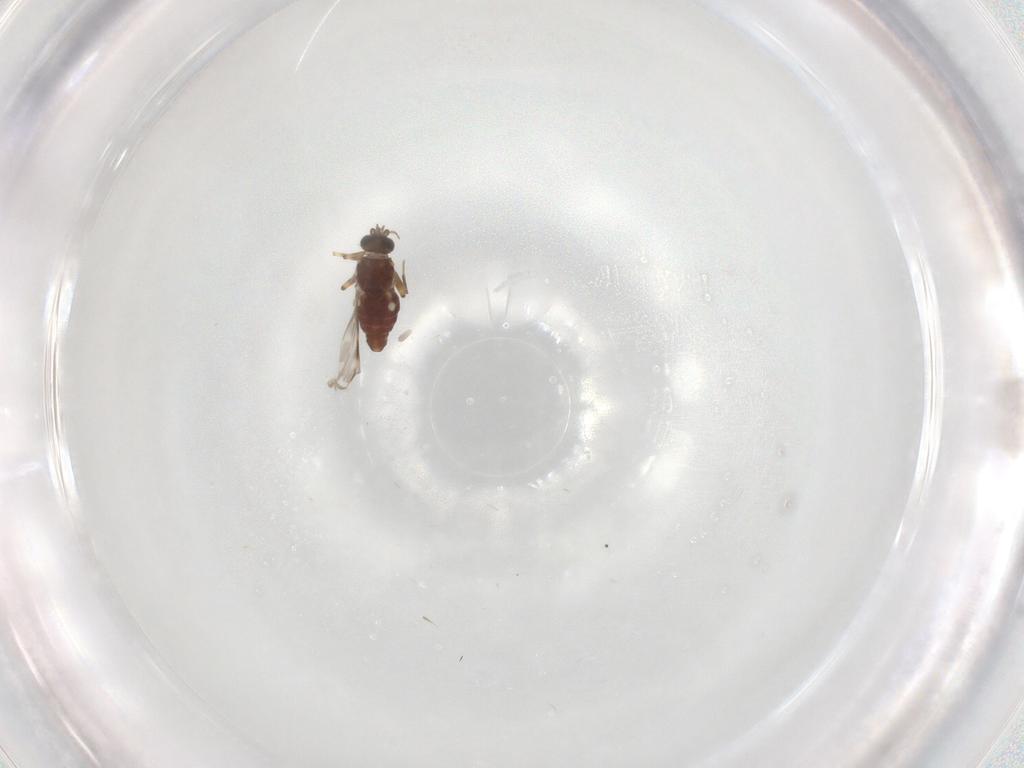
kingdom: Animalia
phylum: Arthropoda
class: Insecta
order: Diptera
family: Ceratopogonidae
